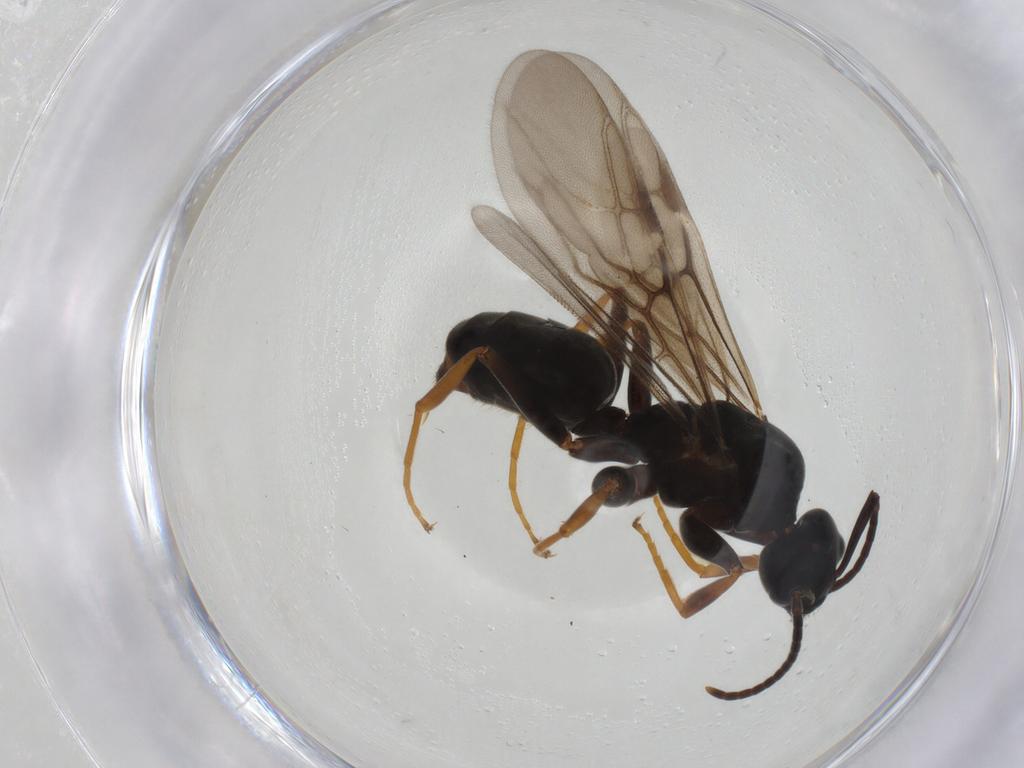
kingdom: Animalia
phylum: Arthropoda
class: Insecta
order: Hymenoptera
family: Formicidae
